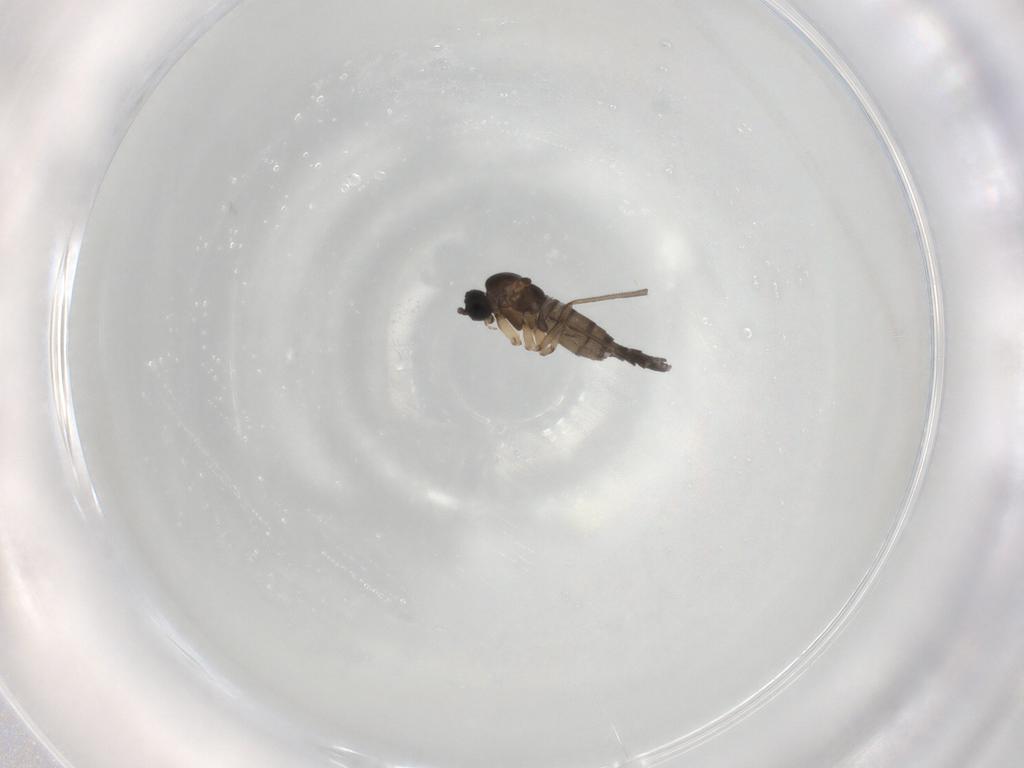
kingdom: Animalia
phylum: Arthropoda
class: Insecta
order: Diptera
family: Sciaridae
